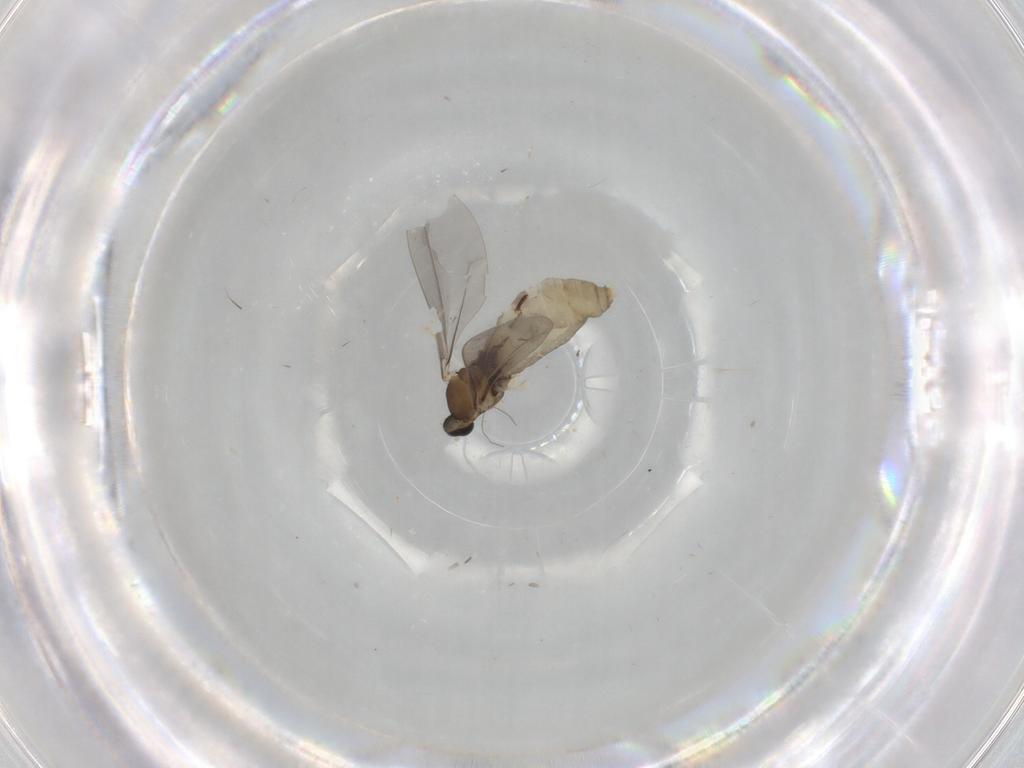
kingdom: Animalia
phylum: Arthropoda
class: Insecta
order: Diptera
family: Cecidomyiidae
